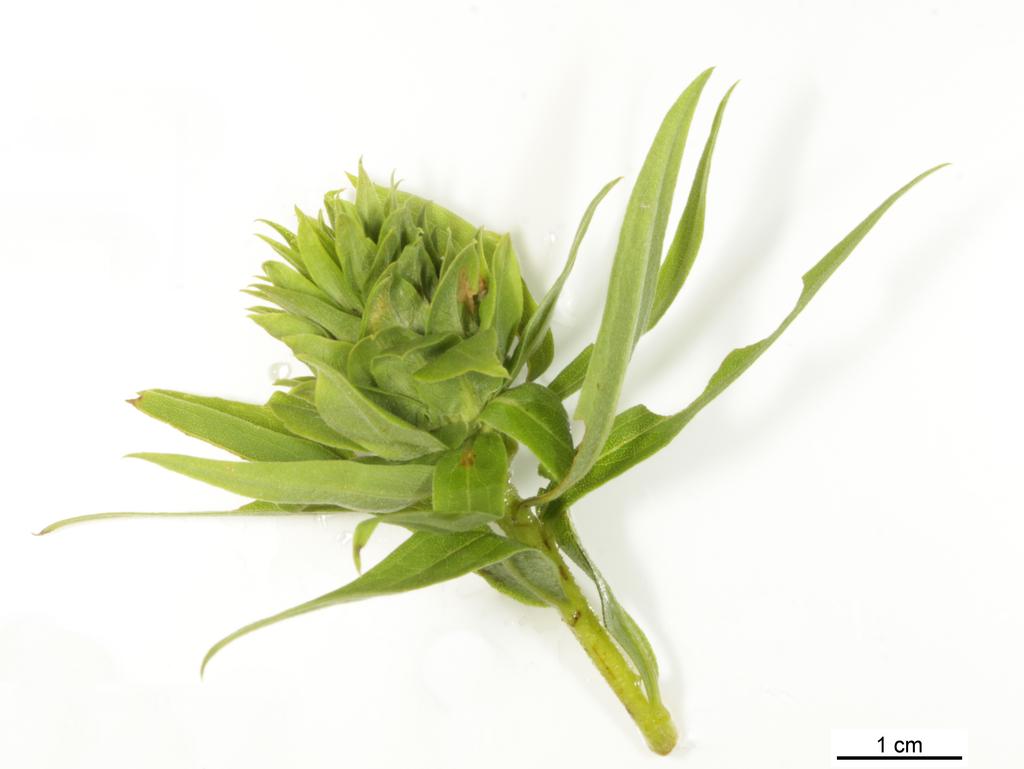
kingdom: Animalia
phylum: Arthropoda
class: Insecta
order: Hymenoptera
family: Pteromalidae
